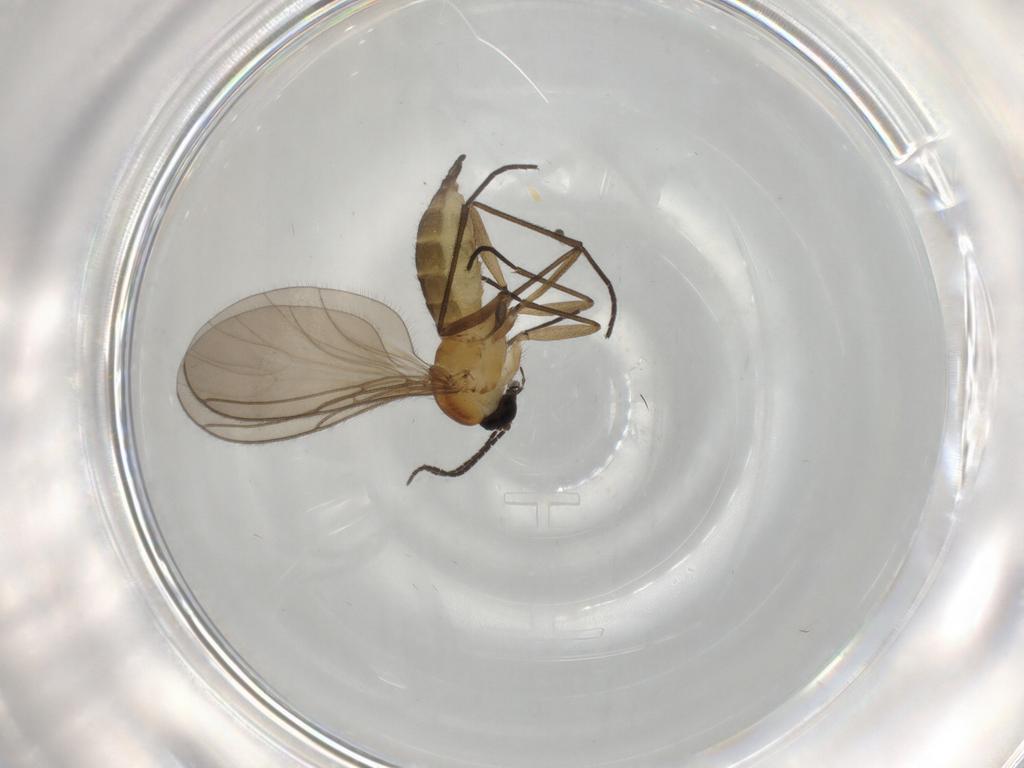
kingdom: Animalia
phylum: Arthropoda
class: Insecta
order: Diptera
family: Sciaridae
